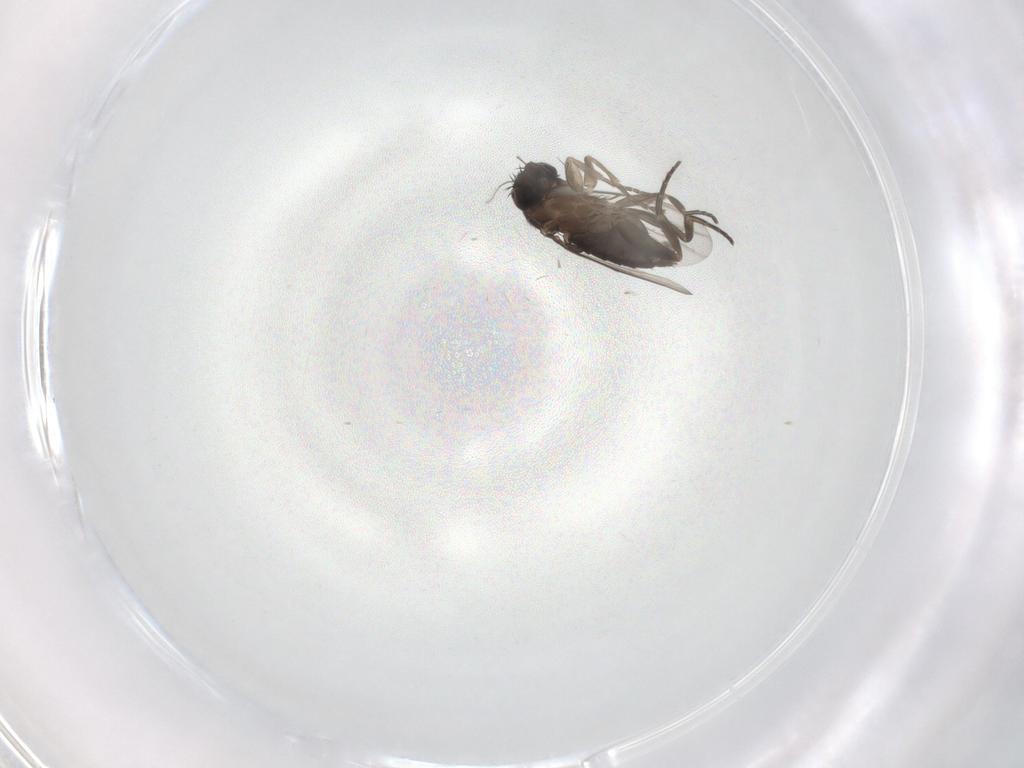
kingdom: Animalia
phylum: Arthropoda
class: Insecta
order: Diptera
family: Phoridae
